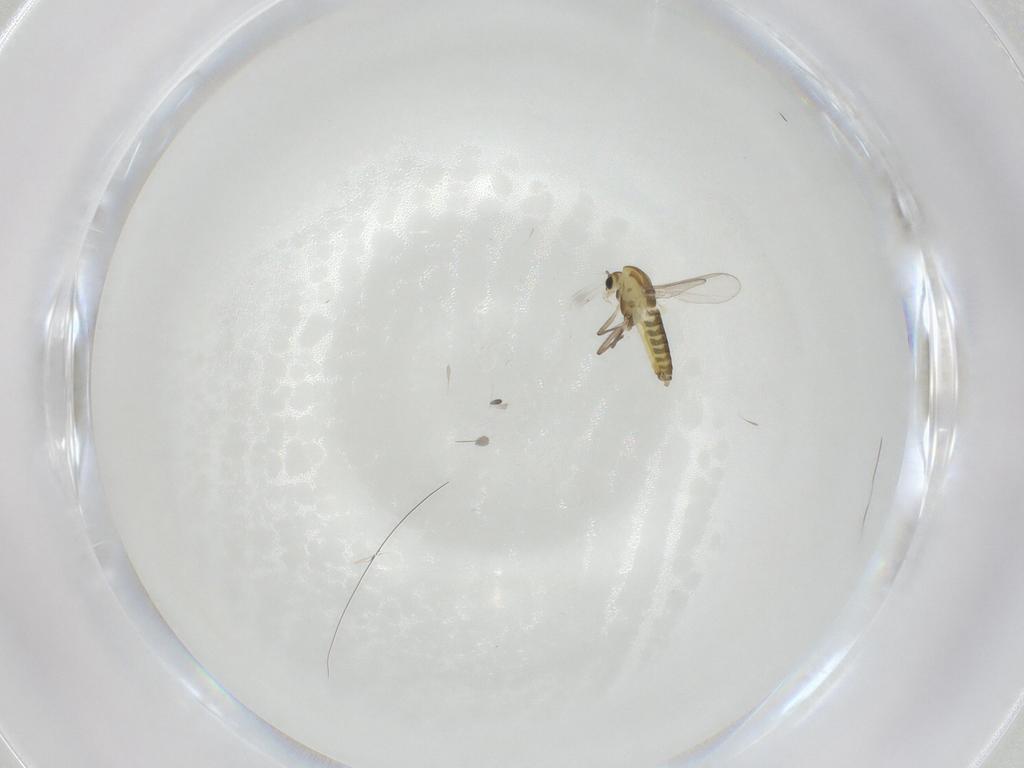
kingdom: Animalia
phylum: Arthropoda
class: Insecta
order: Diptera
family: Chironomidae
